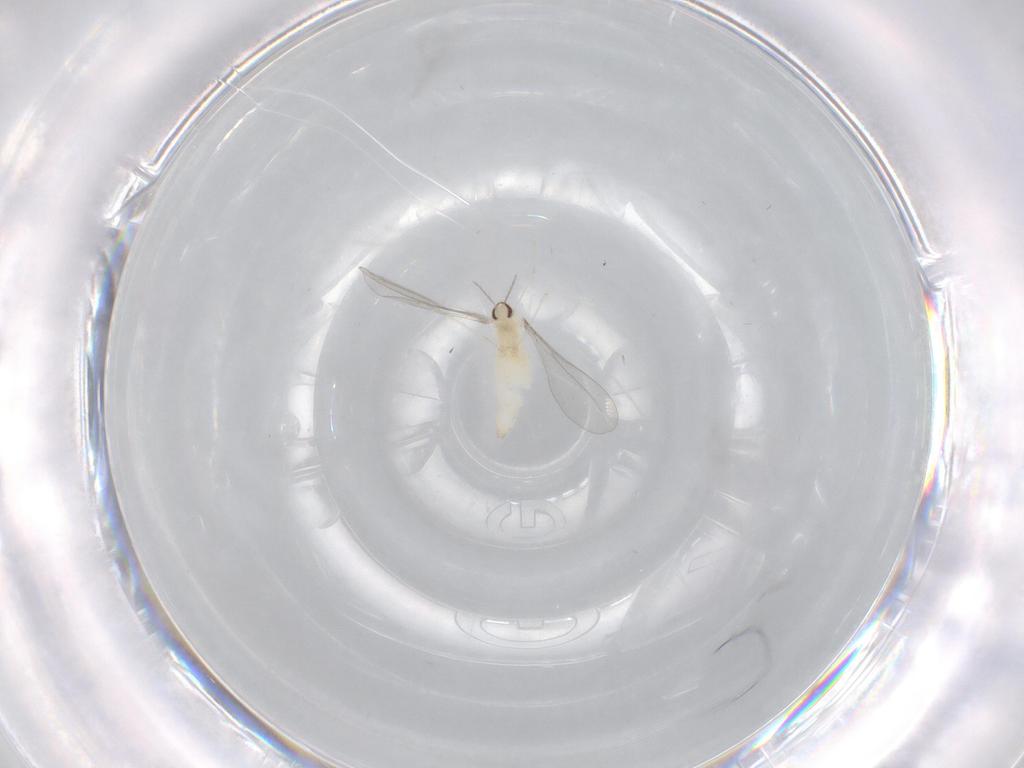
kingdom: Animalia
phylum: Arthropoda
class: Insecta
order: Diptera
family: Cecidomyiidae
